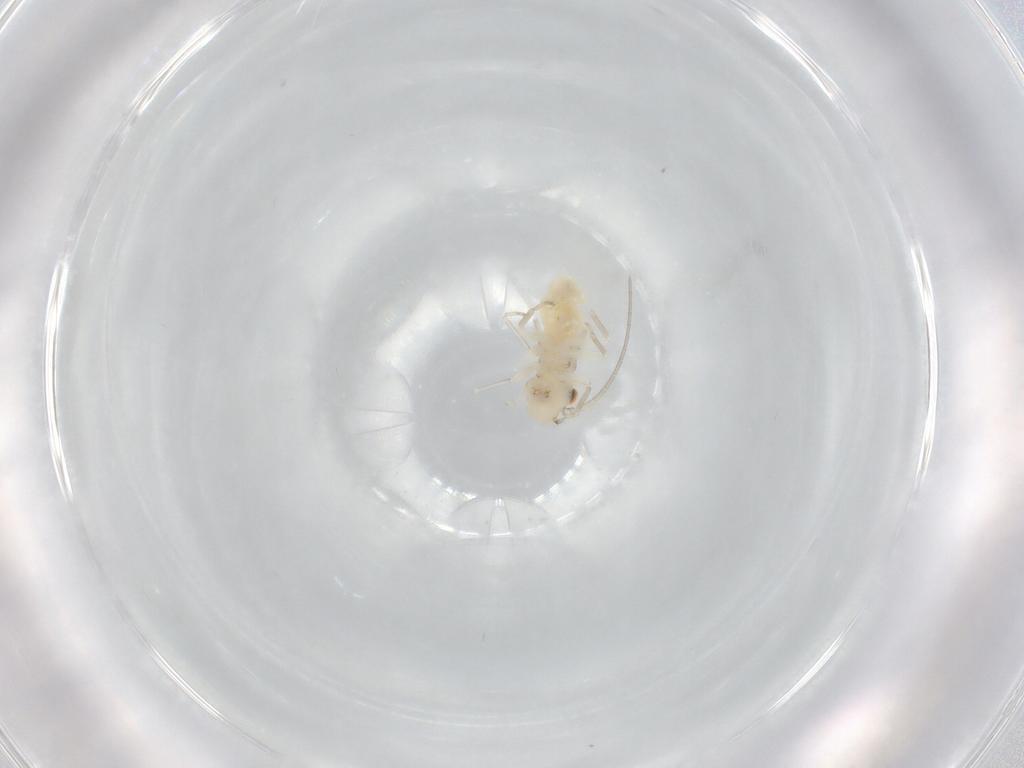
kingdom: Animalia
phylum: Arthropoda
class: Insecta
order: Psocodea
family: Caeciliusidae
